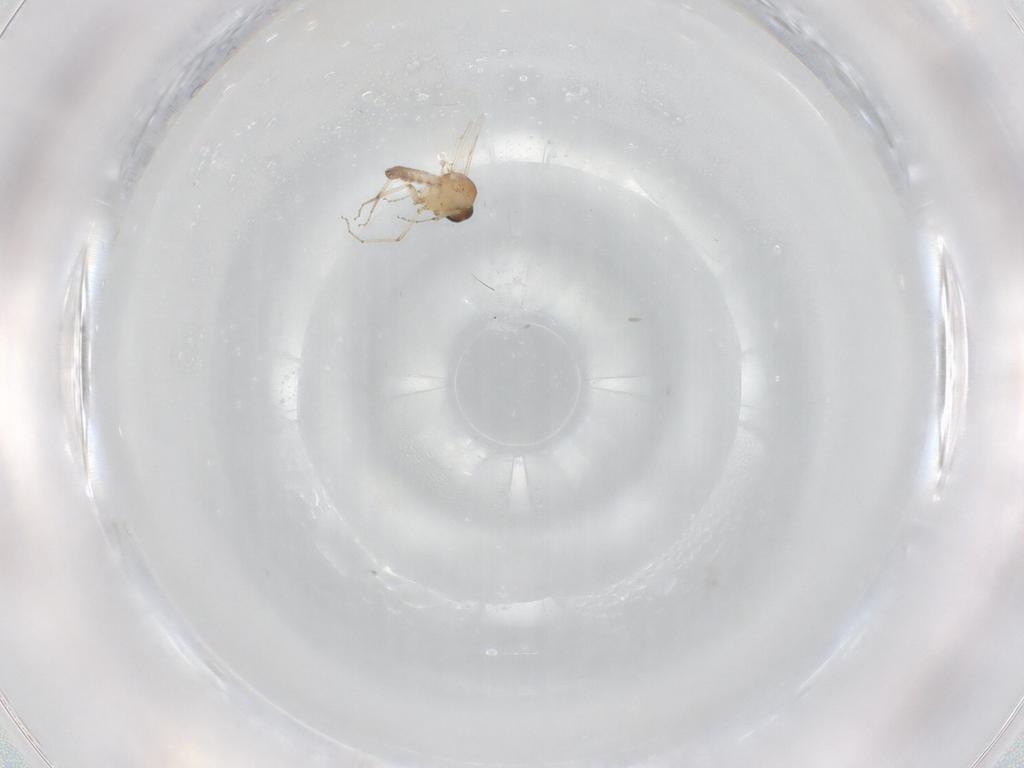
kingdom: Animalia
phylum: Arthropoda
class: Insecta
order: Diptera
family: Ceratopogonidae
